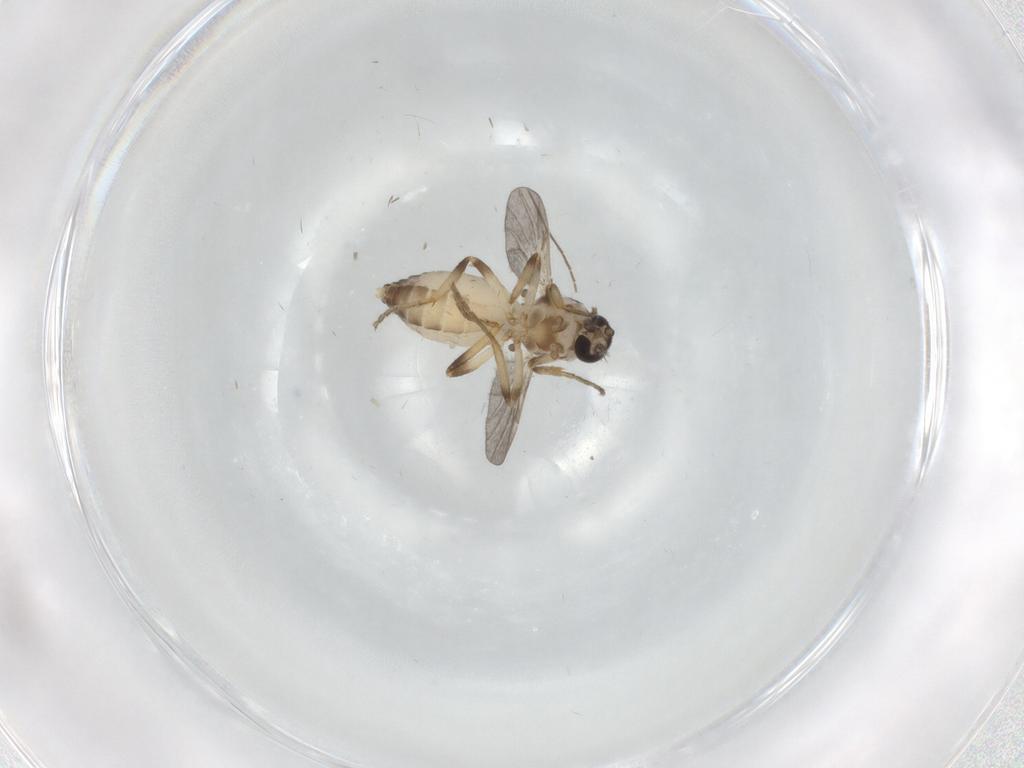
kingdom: Animalia
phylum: Arthropoda
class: Insecta
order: Diptera
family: Ceratopogonidae
